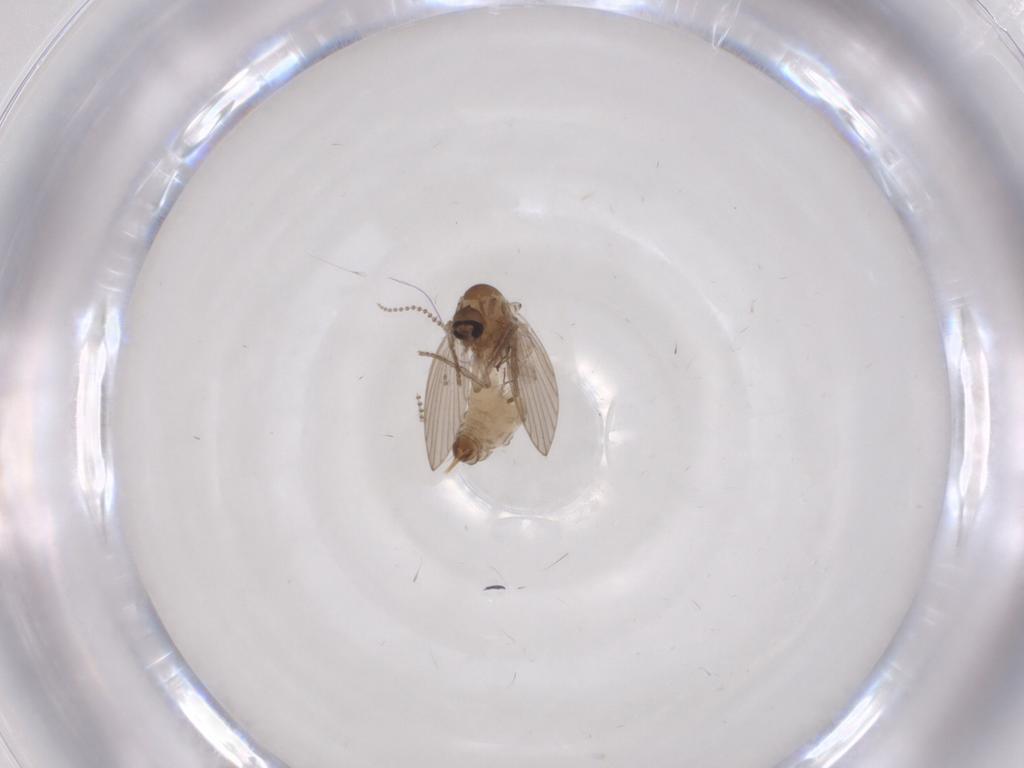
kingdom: Animalia
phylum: Arthropoda
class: Insecta
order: Diptera
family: Psychodidae
